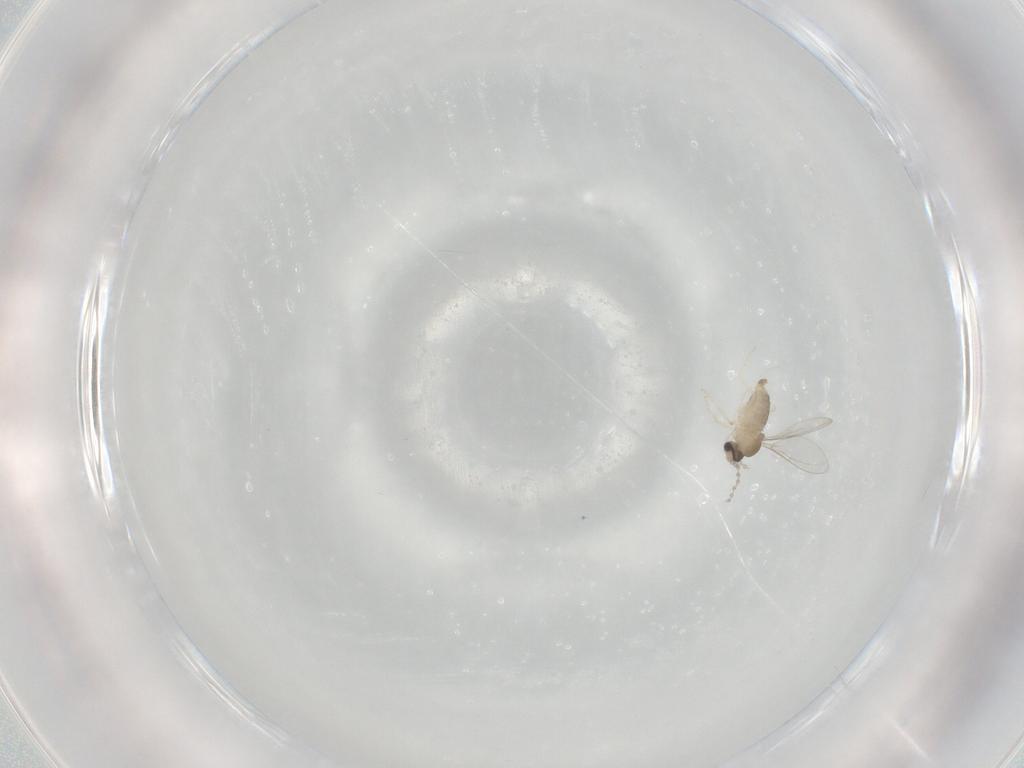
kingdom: Animalia
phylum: Arthropoda
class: Insecta
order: Diptera
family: Cecidomyiidae
